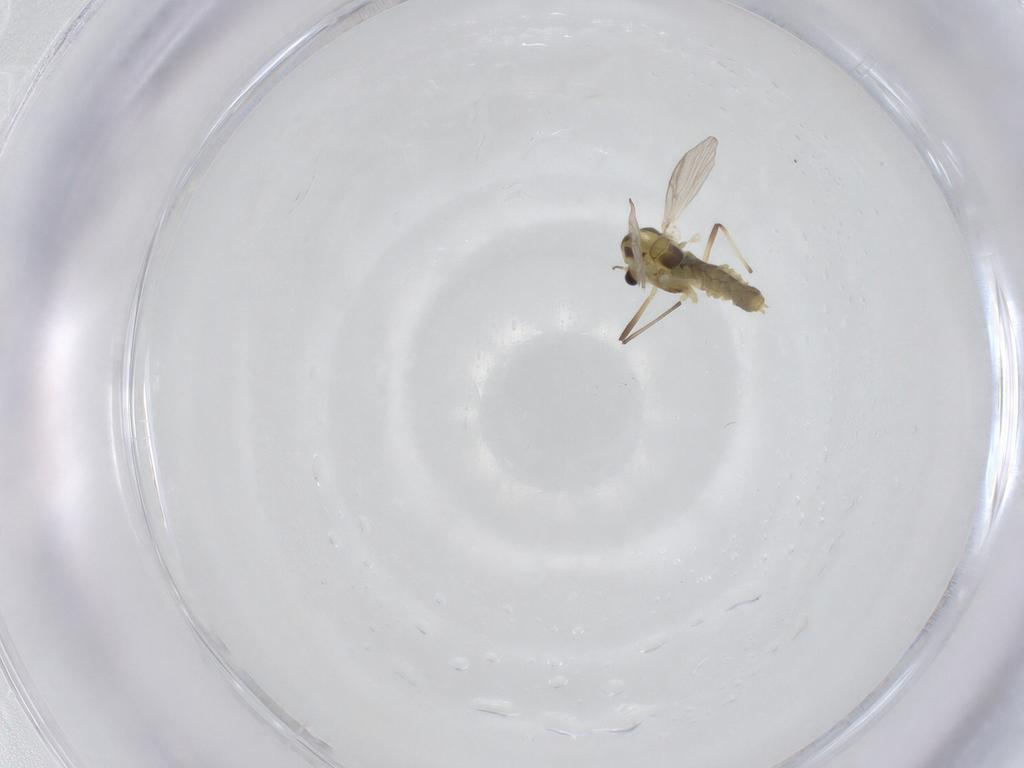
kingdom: Animalia
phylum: Arthropoda
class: Insecta
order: Diptera
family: Chironomidae
